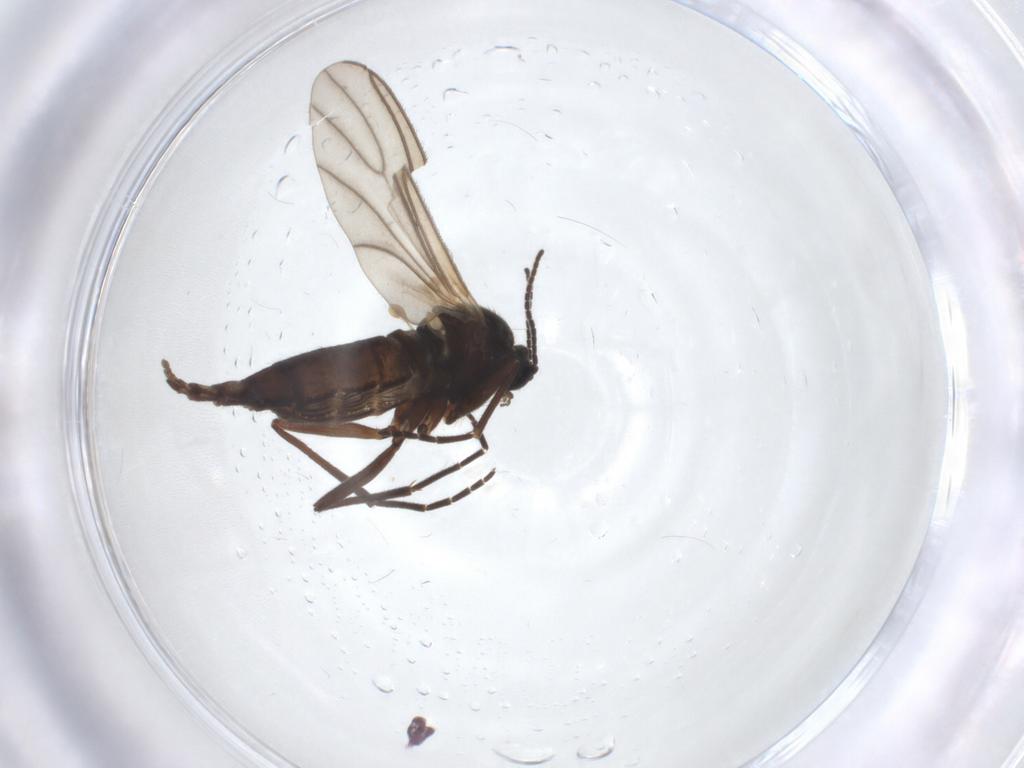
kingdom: Animalia
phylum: Arthropoda
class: Insecta
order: Diptera
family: Sciaridae
